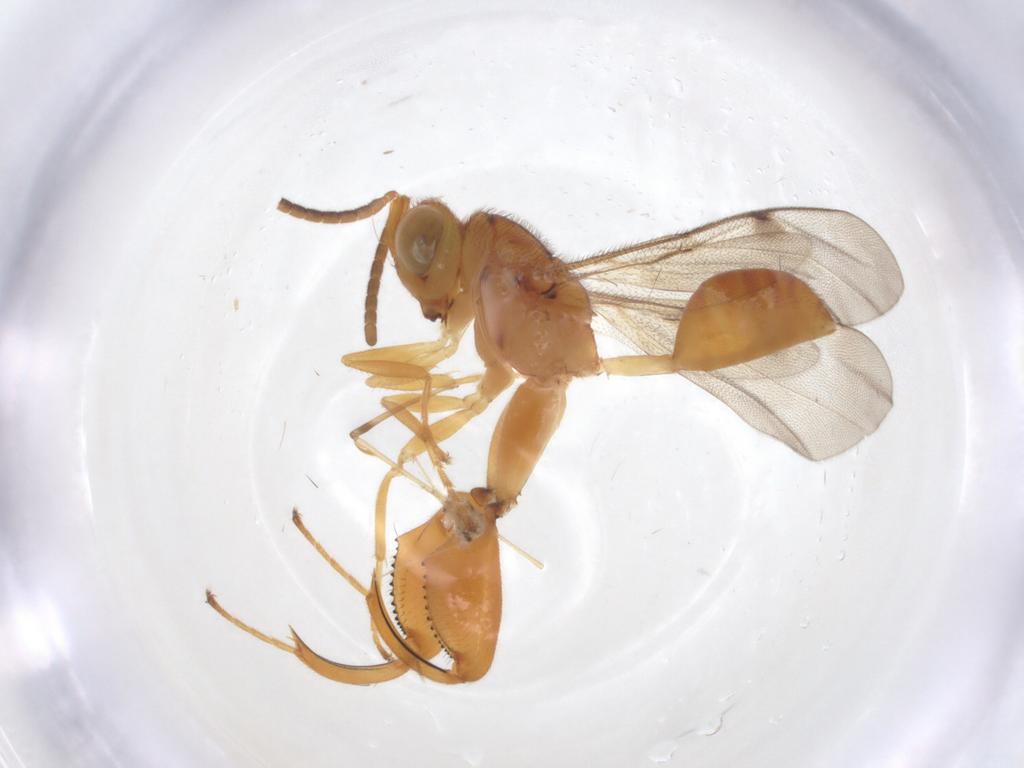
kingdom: Animalia
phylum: Arthropoda
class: Insecta
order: Hymenoptera
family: Chalcididae
